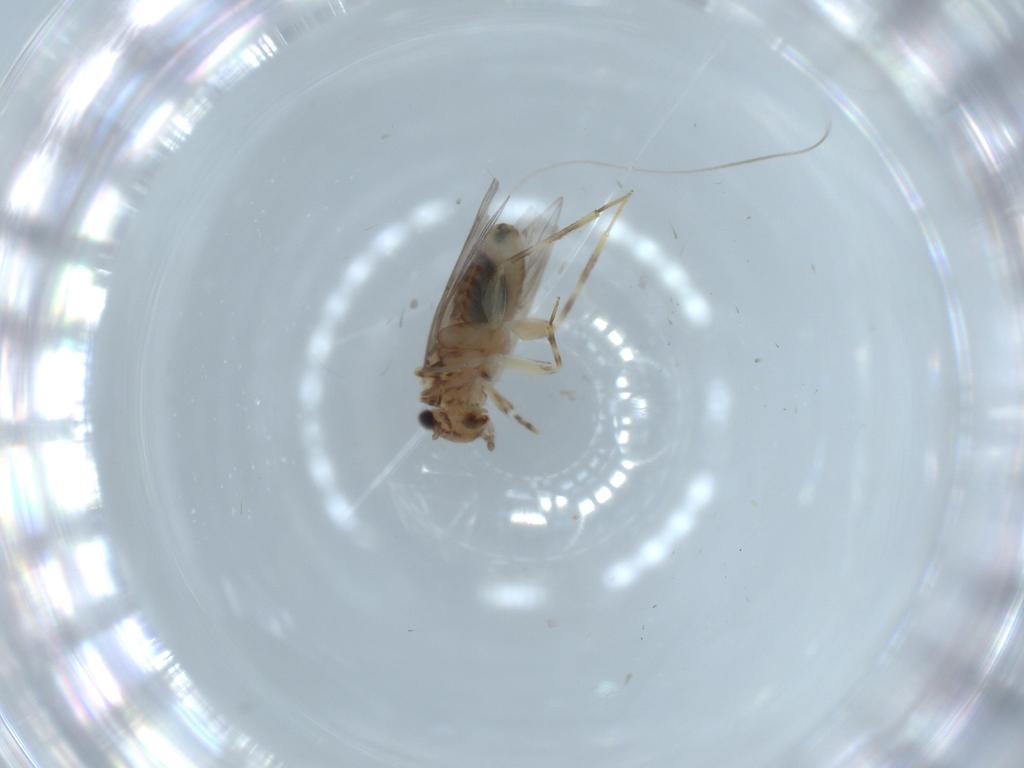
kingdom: Animalia
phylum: Arthropoda
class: Insecta
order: Psocodea
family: Lepidopsocidae
